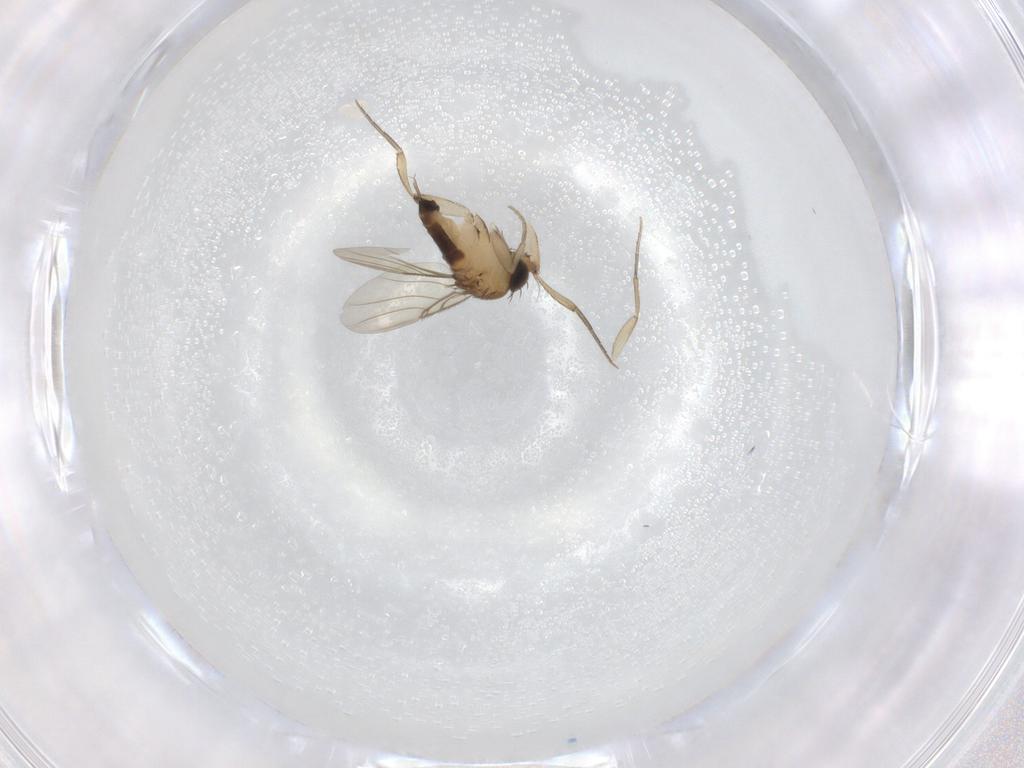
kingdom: Animalia
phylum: Arthropoda
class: Insecta
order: Diptera
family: Phoridae
